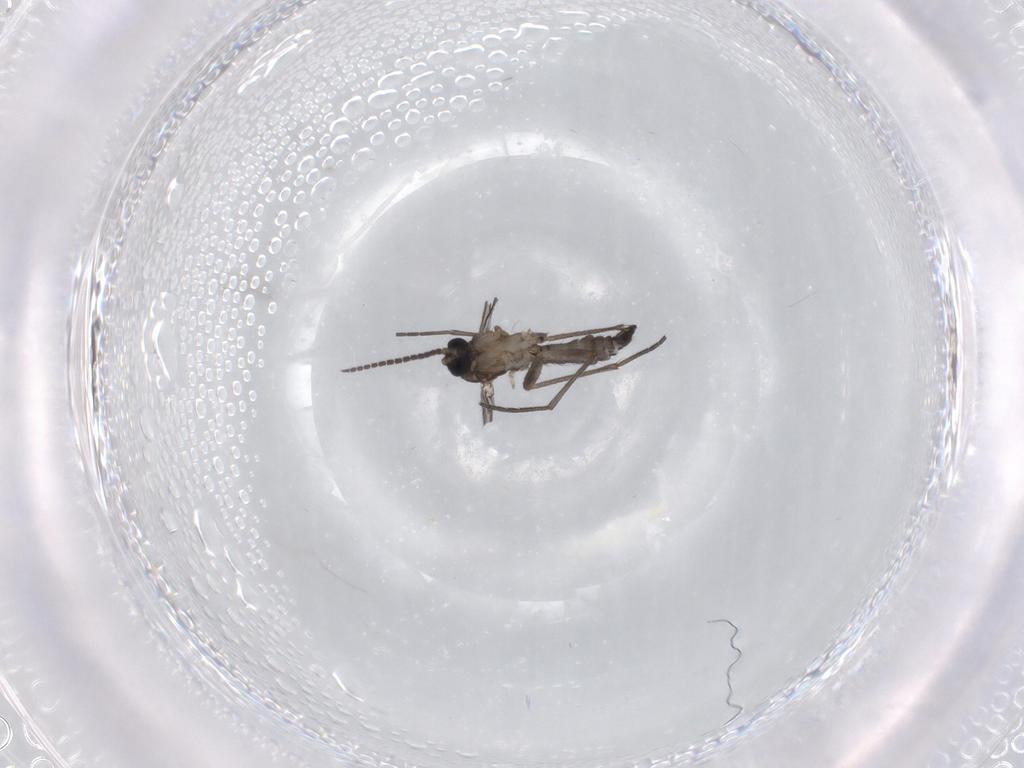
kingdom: Animalia
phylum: Arthropoda
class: Insecta
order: Diptera
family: Sciaridae
